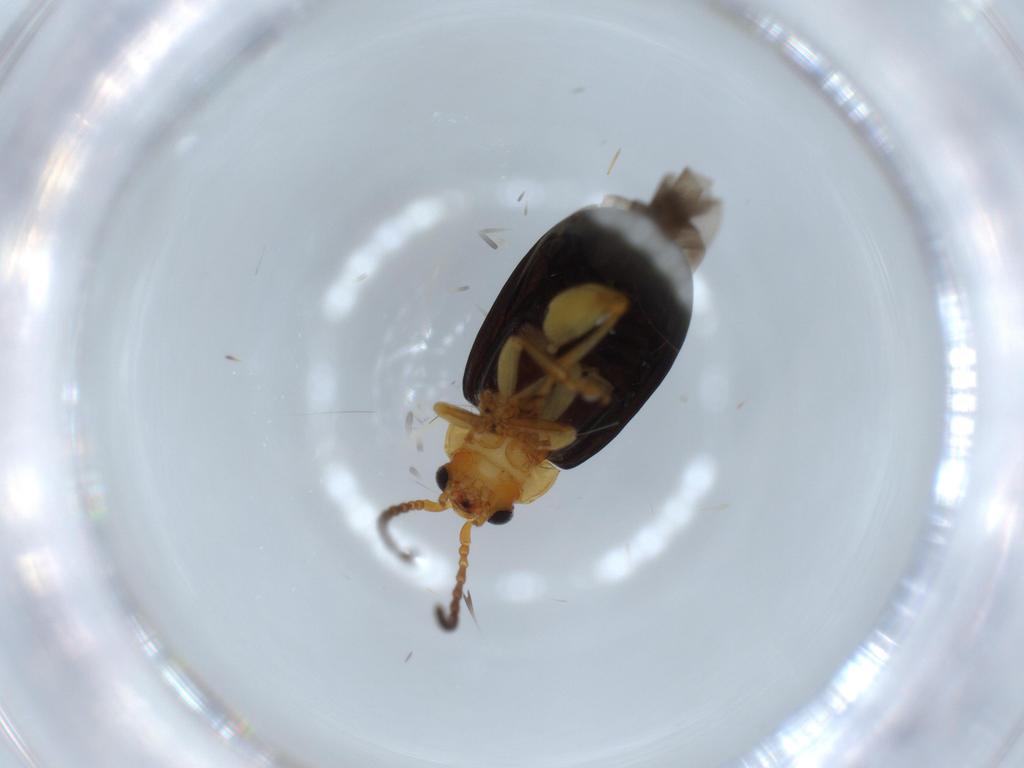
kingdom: Animalia
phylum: Arthropoda
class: Insecta
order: Coleoptera
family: Chrysomelidae
